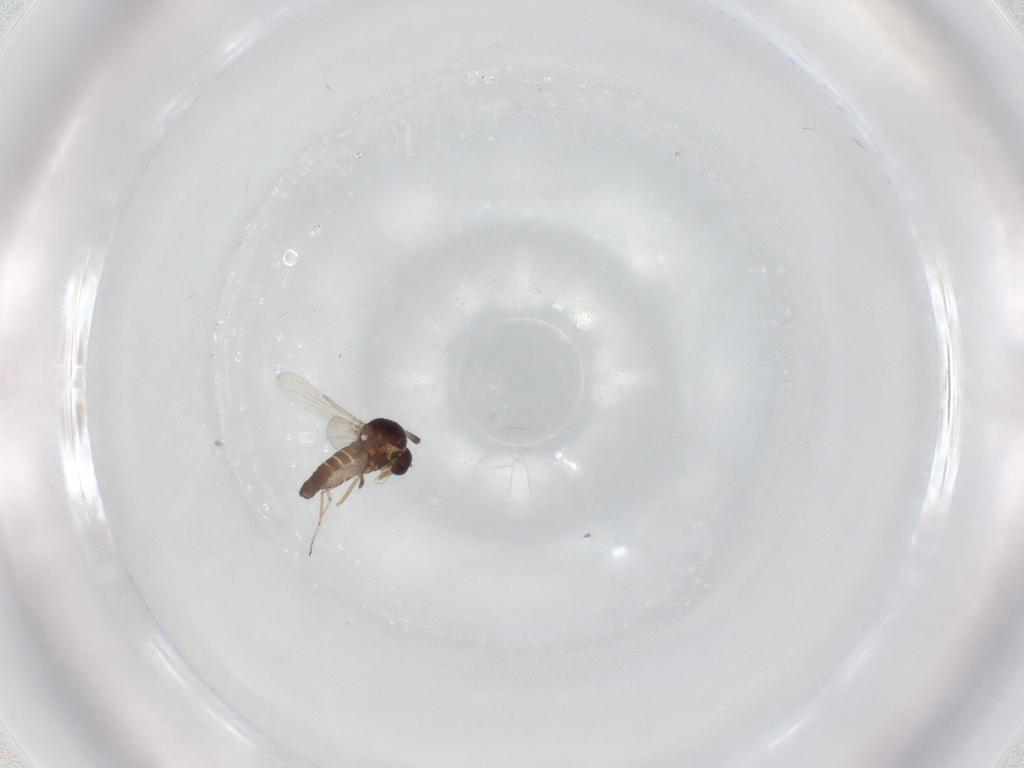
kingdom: Animalia
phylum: Arthropoda
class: Insecta
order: Diptera
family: Ceratopogonidae
